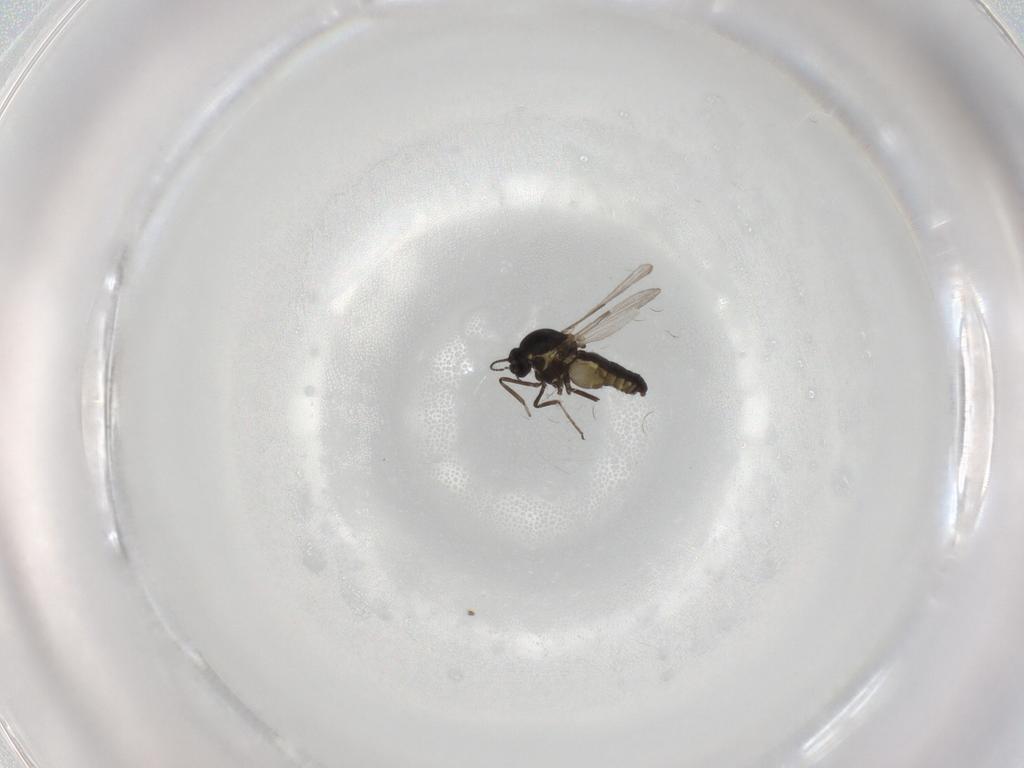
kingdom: Animalia
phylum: Arthropoda
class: Insecta
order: Diptera
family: Ceratopogonidae
